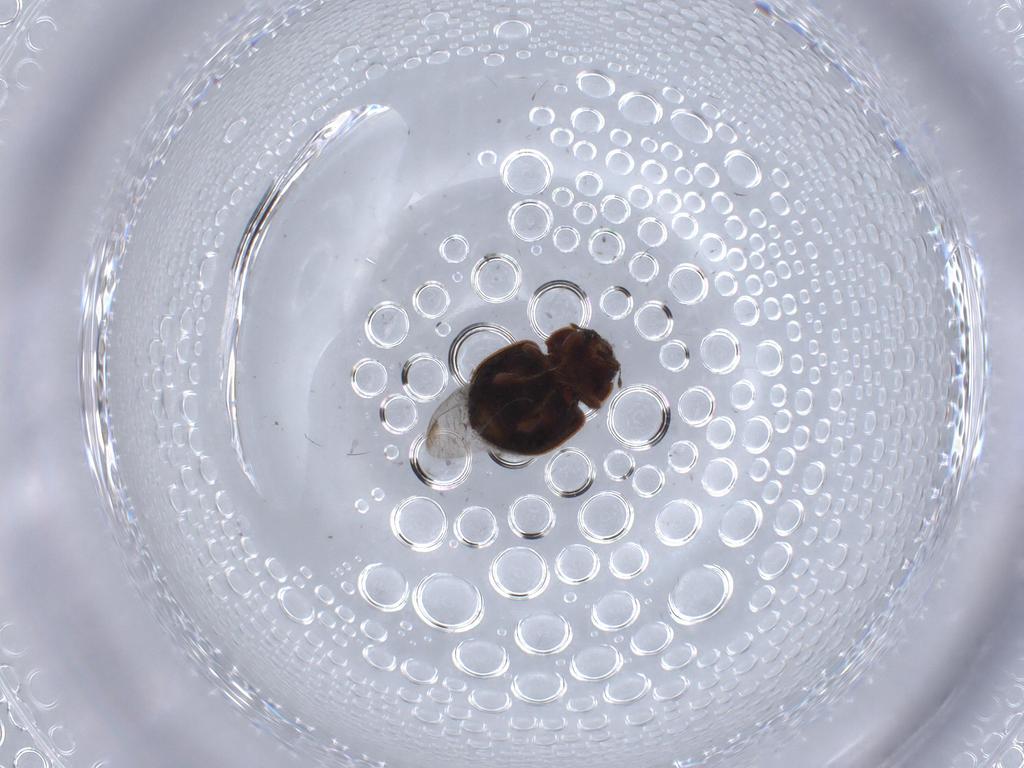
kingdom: Animalia
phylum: Arthropoda
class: Insecta
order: Coleoptera
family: Coccinellidae
